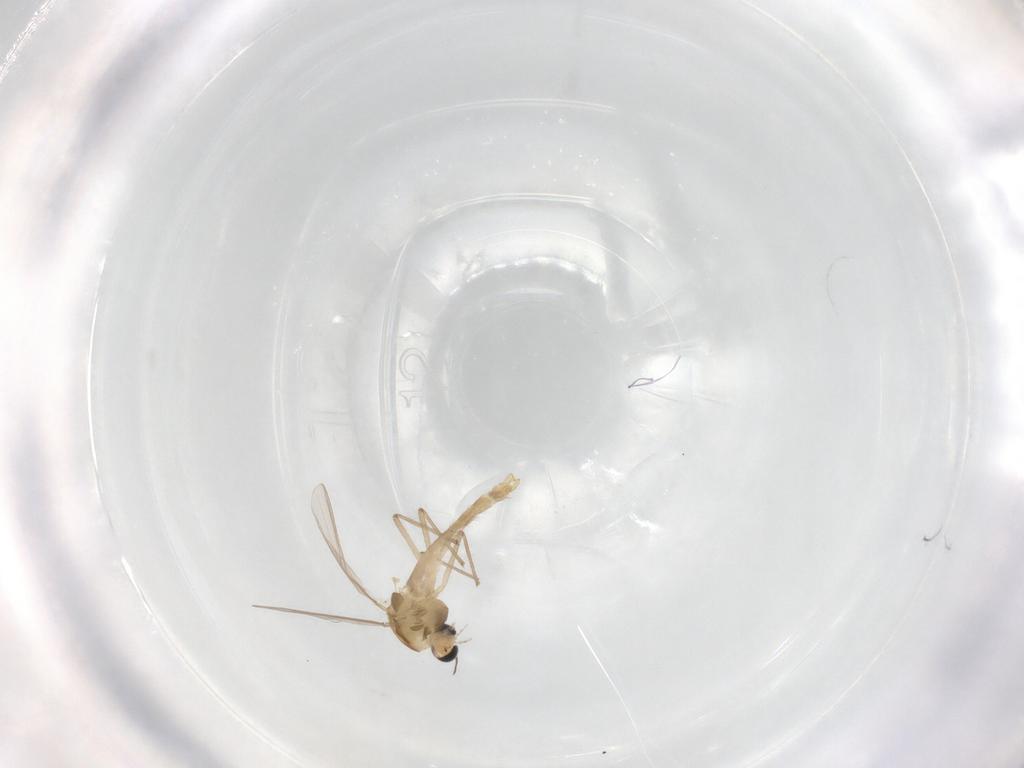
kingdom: Animalia
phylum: Arthropoda
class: Insecta
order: Diptera
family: Chironomidae
